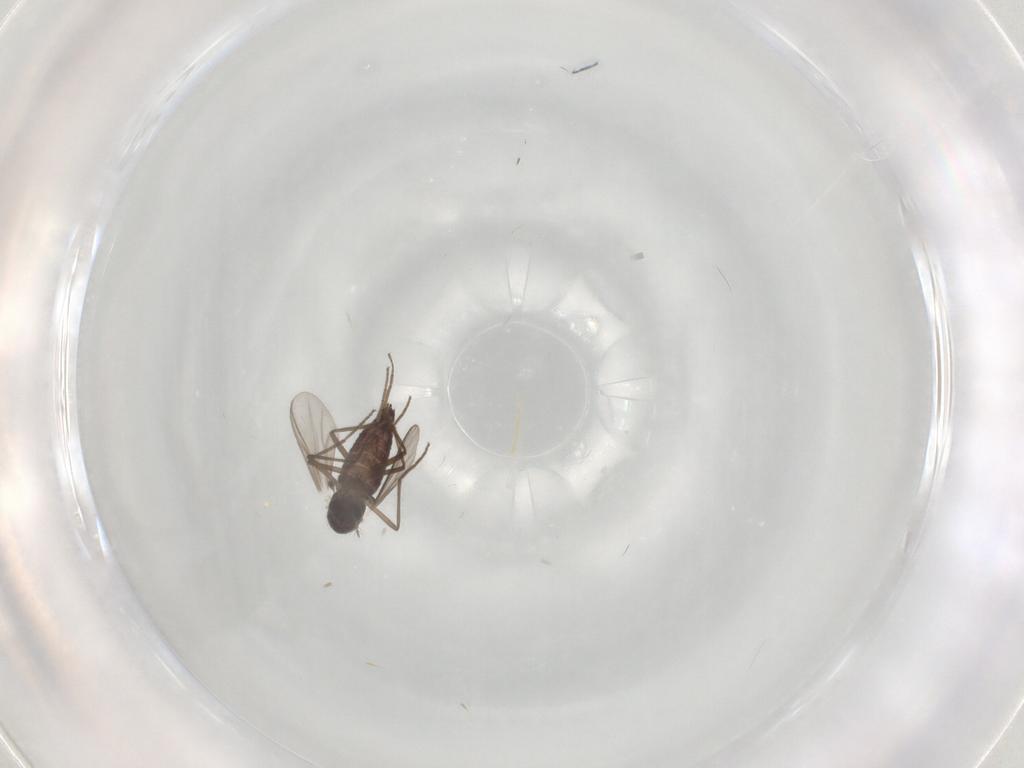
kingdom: Animalia
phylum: Arthropoda
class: Insecta
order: Diptera
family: Chironomidae
